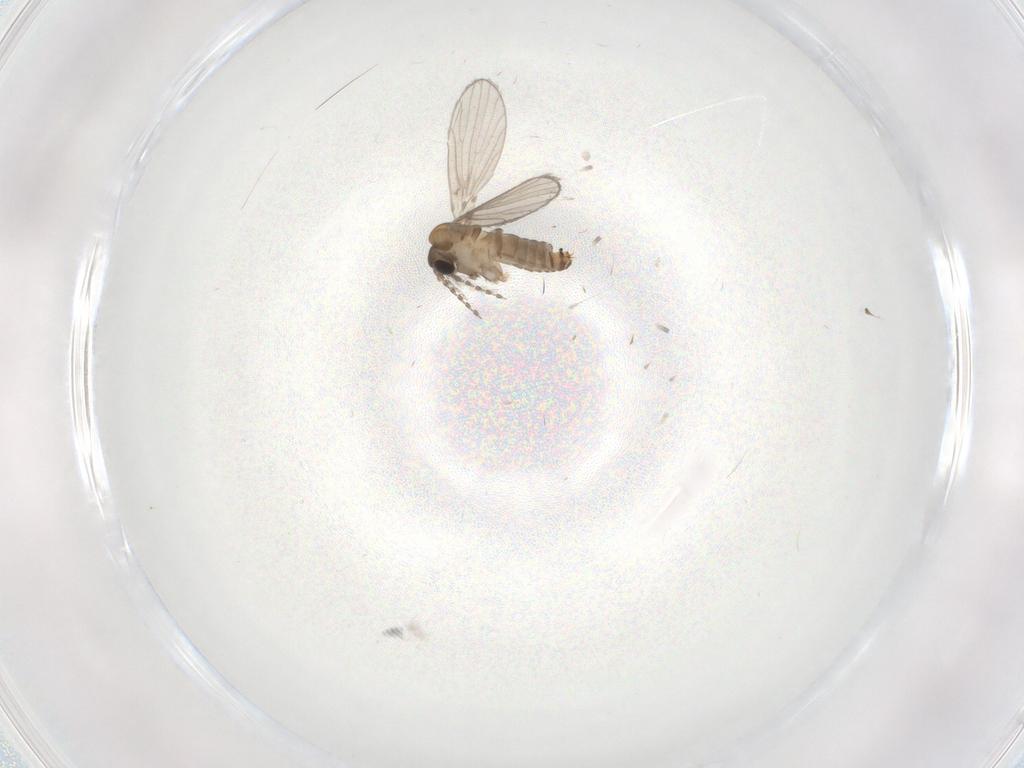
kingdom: Animalia
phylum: Arthropoda
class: Insecta
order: Diptera
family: Psychodidae
